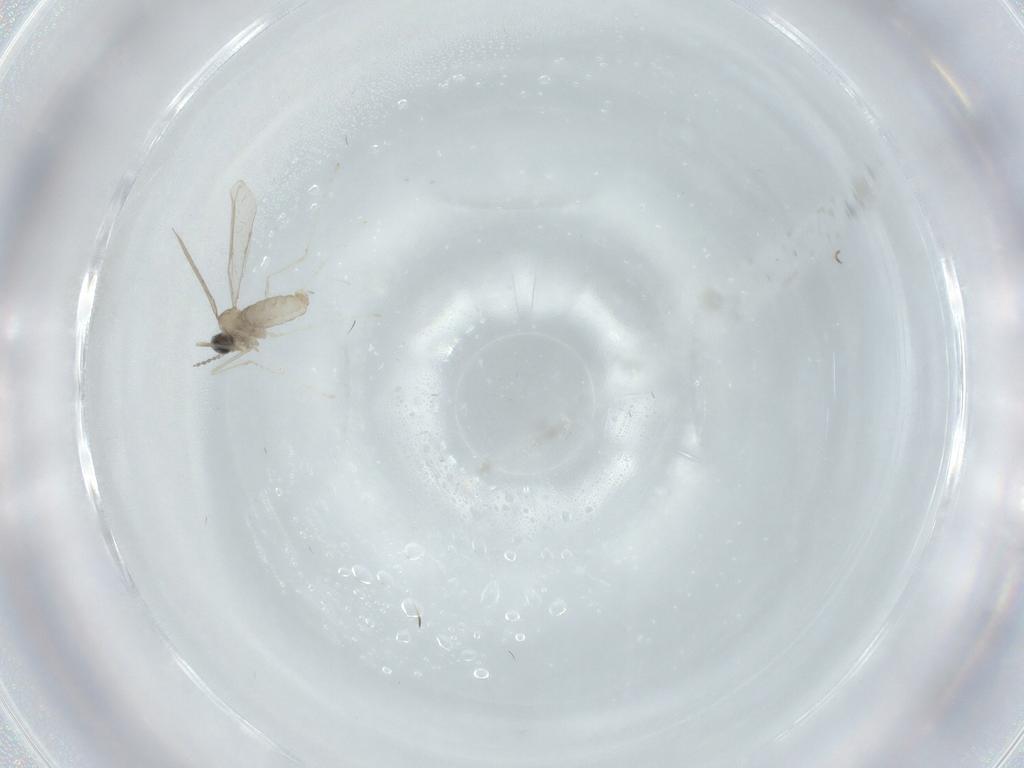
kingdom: Animalia
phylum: Arthropoda
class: Insecta
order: Diptera
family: Cecidomyiidae
